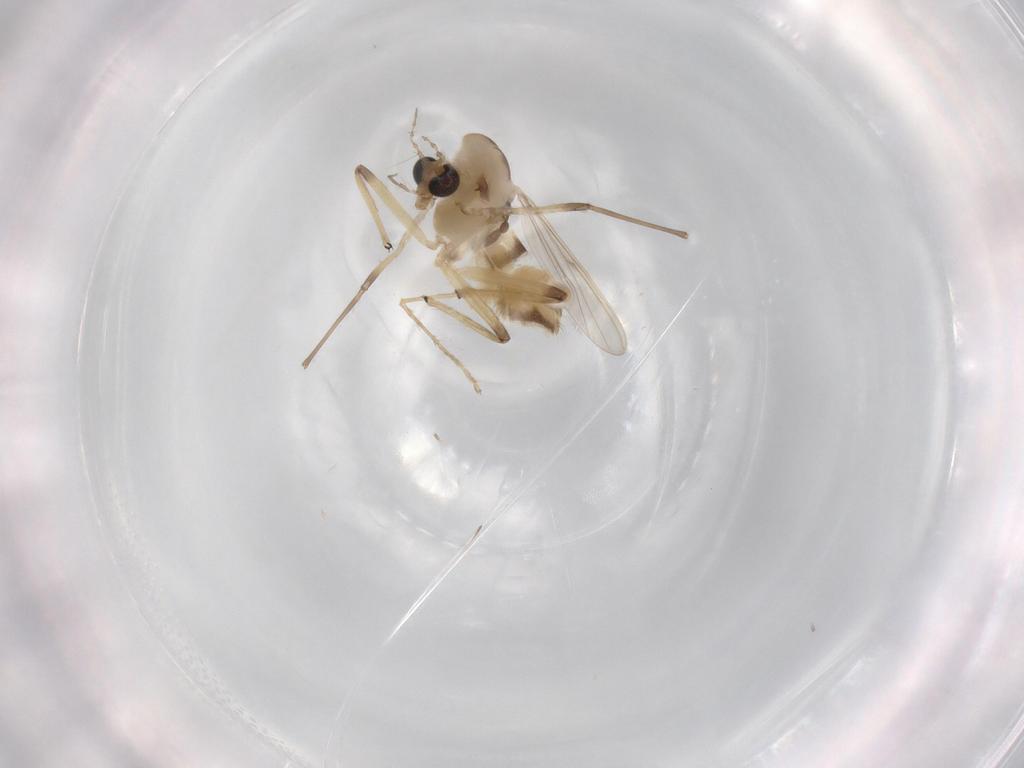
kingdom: Animalia
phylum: Arthropoda
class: Insecta
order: Diptera
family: Chironomidae
